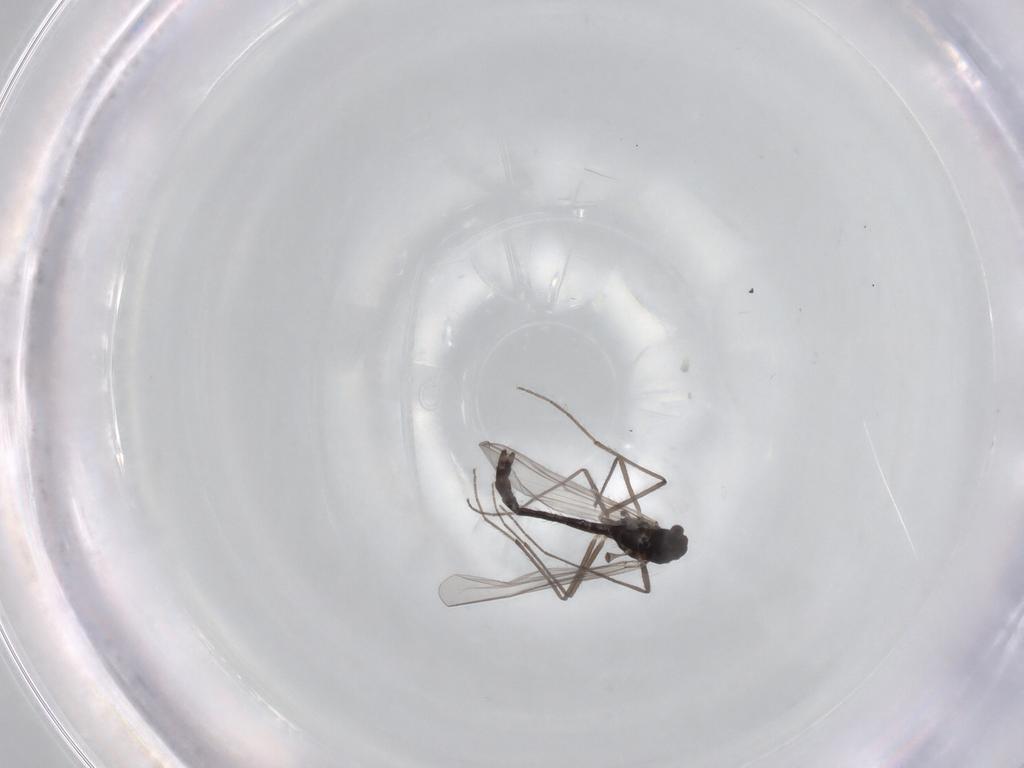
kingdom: Animalia
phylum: Arthropoda
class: Insecta
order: Diptera
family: Chironomidae
